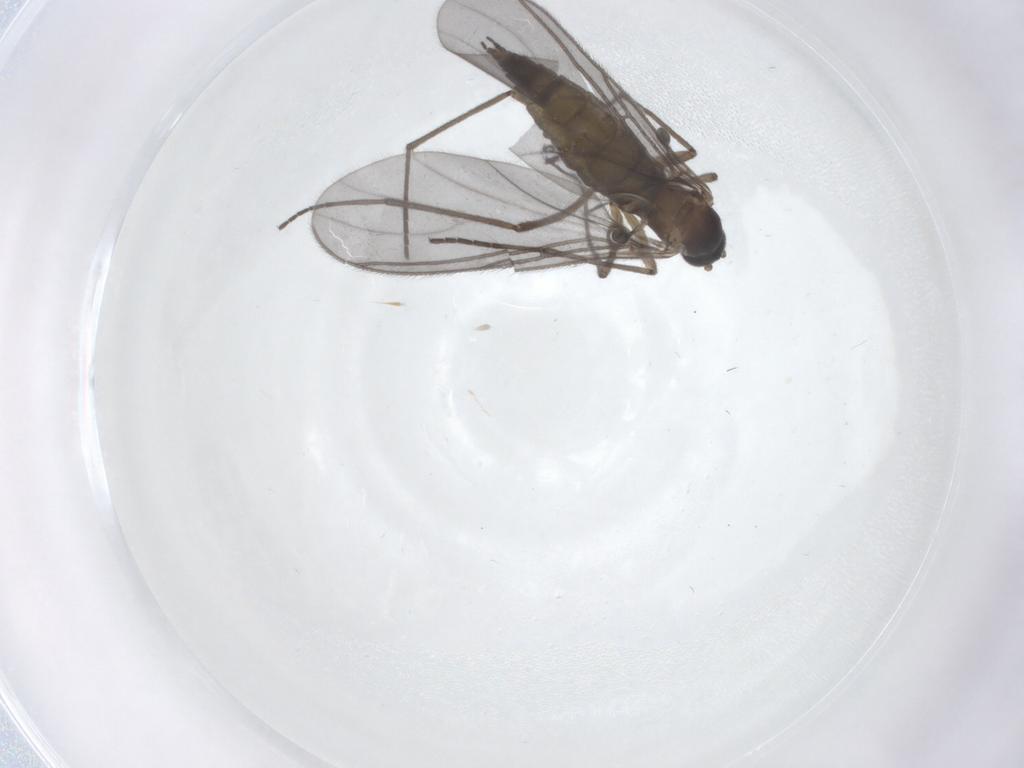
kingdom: Animalia
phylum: Arthropoda
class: Insecta
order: Diptera
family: Sciaridae
